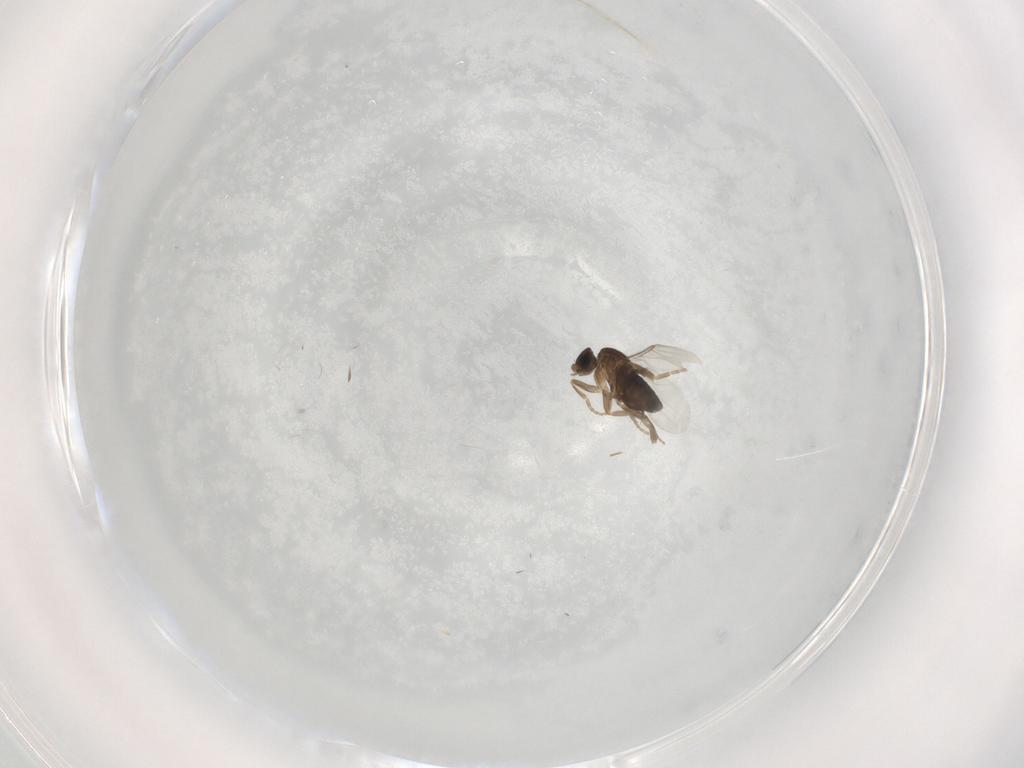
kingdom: Animalia
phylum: Arthropoda
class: Insecta
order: Diptera
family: Phoridae
